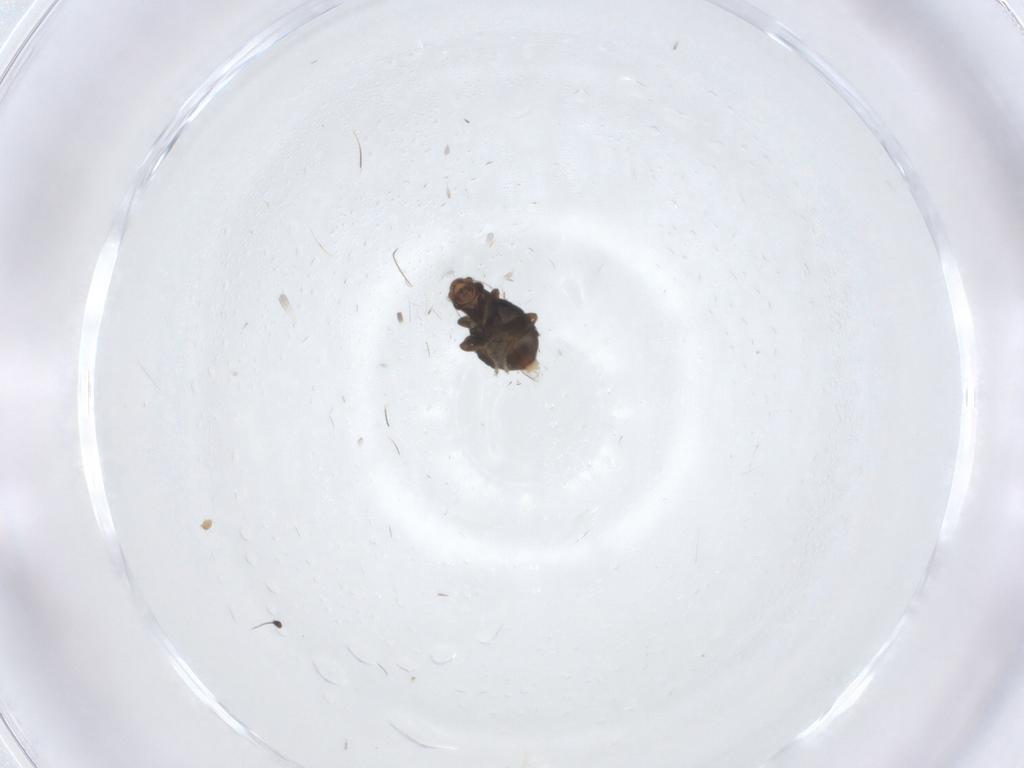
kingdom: Animalia
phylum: Arthropoda
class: Insecta
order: Diptera
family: Phoridae
